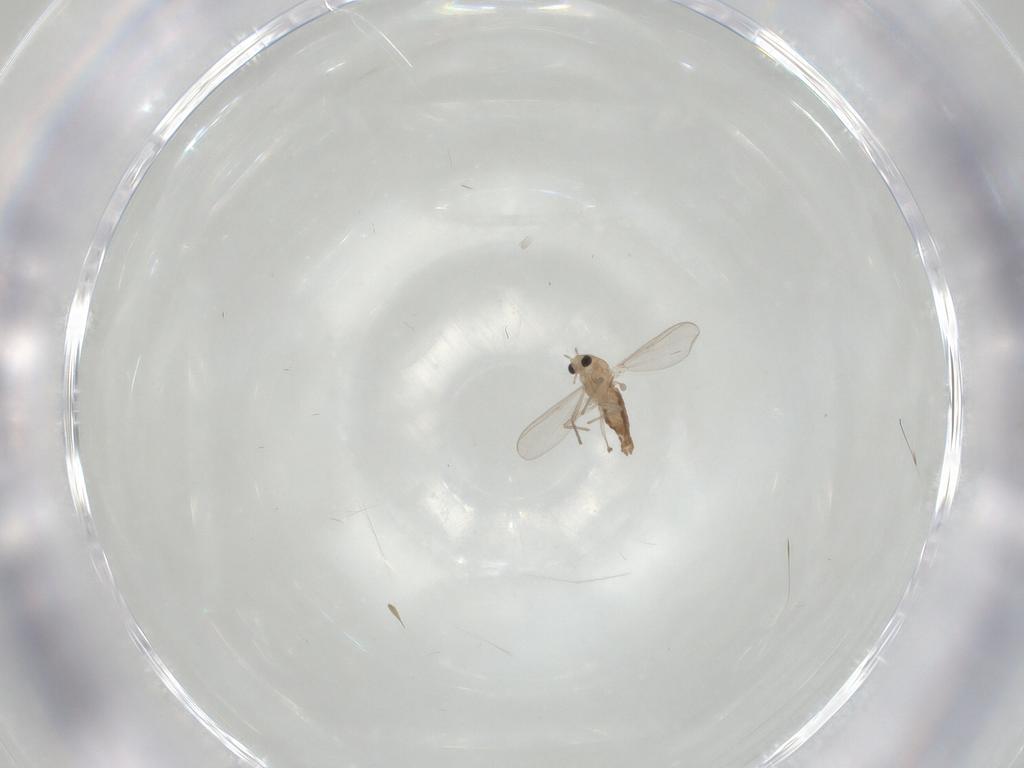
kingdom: Animalia
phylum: Arthropoda
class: Insecta
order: Diptera
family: Chironomidae
